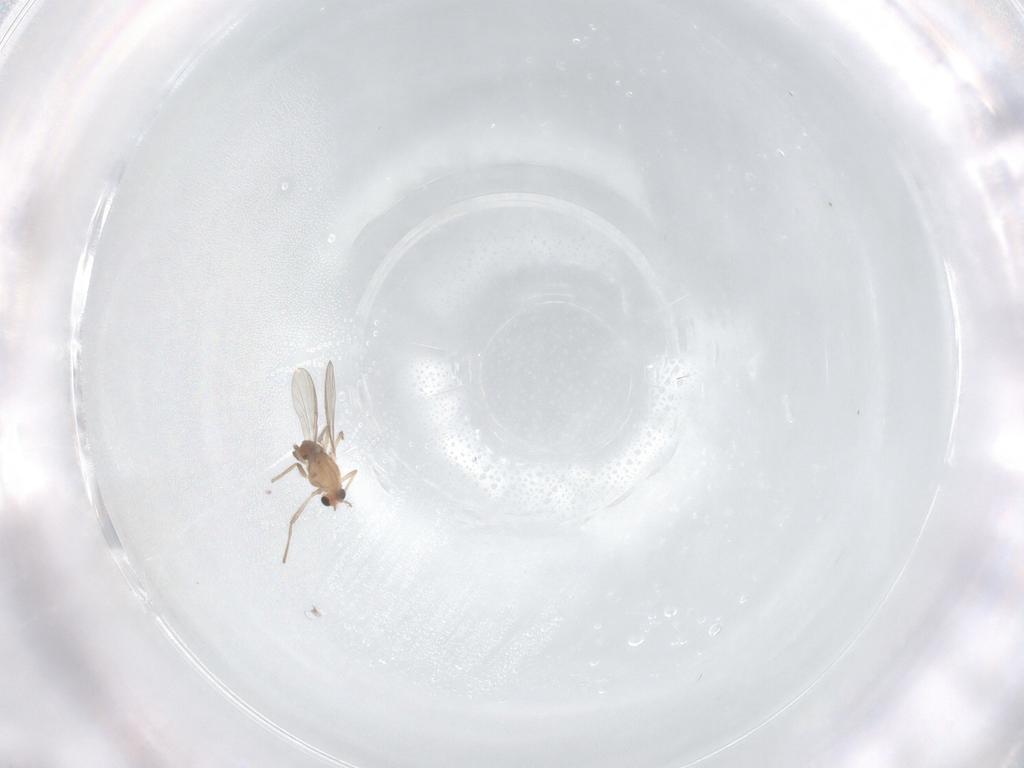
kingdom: Animalia
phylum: Arthropoda
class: Insecta
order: Diptera
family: Chironomidae
